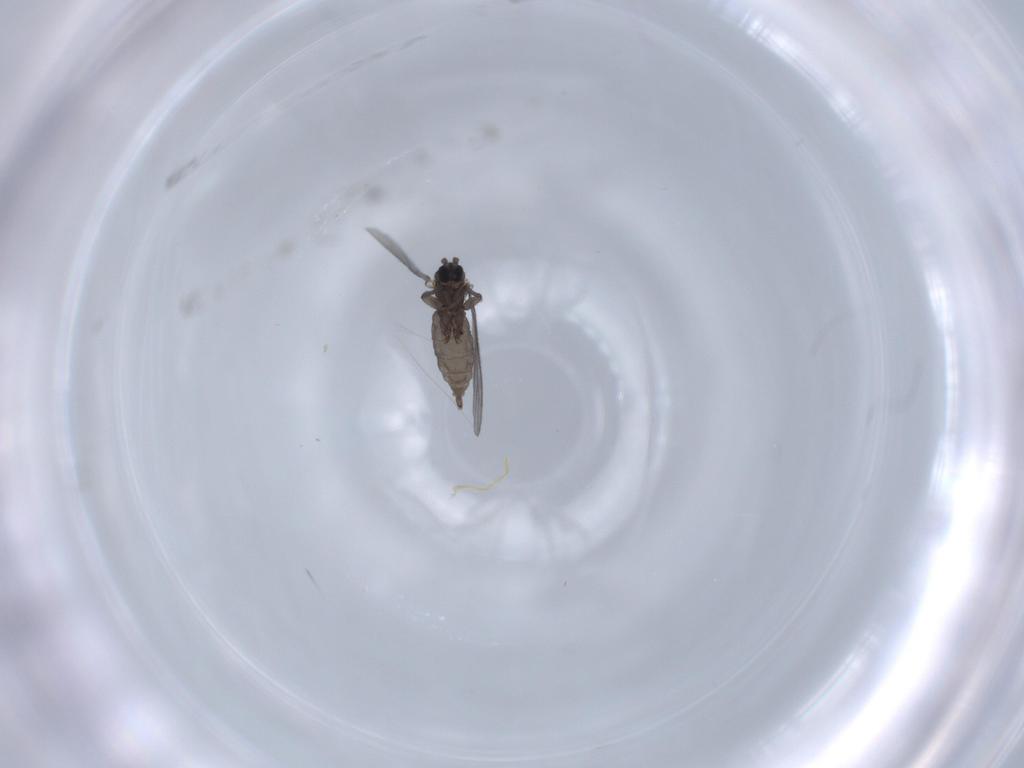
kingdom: Animalia
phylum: Arthropoda
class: Insecta
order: Diptera
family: Sciaridae
